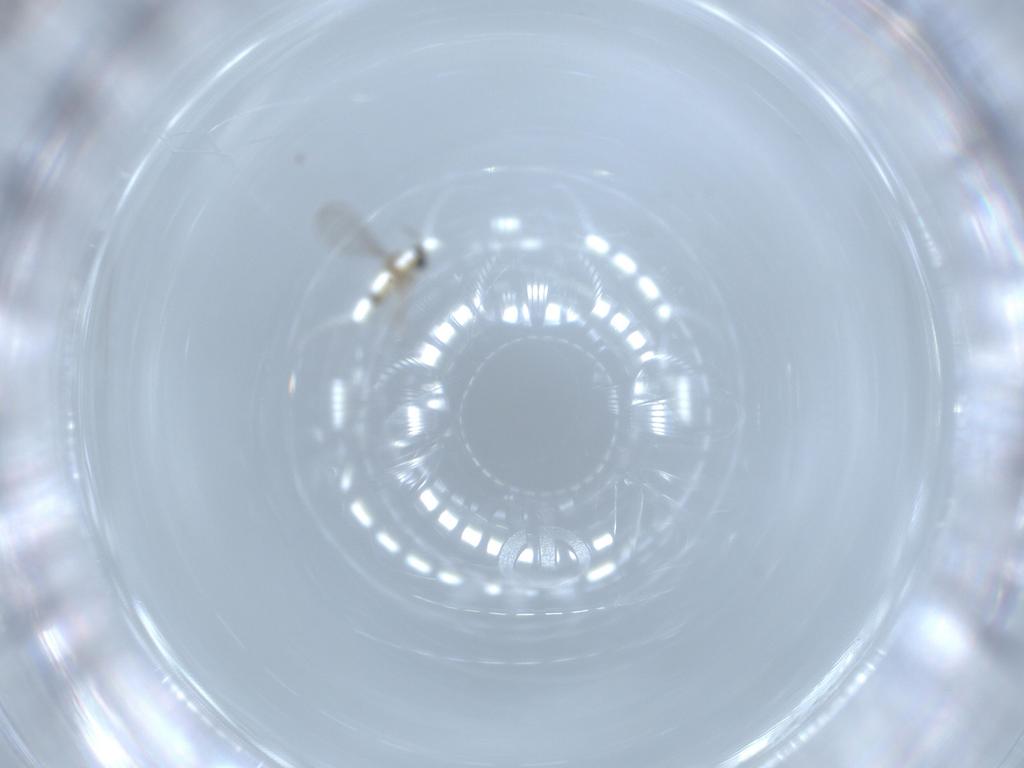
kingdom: Animalia
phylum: Arthropoda
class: Insecta
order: Diptera
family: Cecidomyiidae
